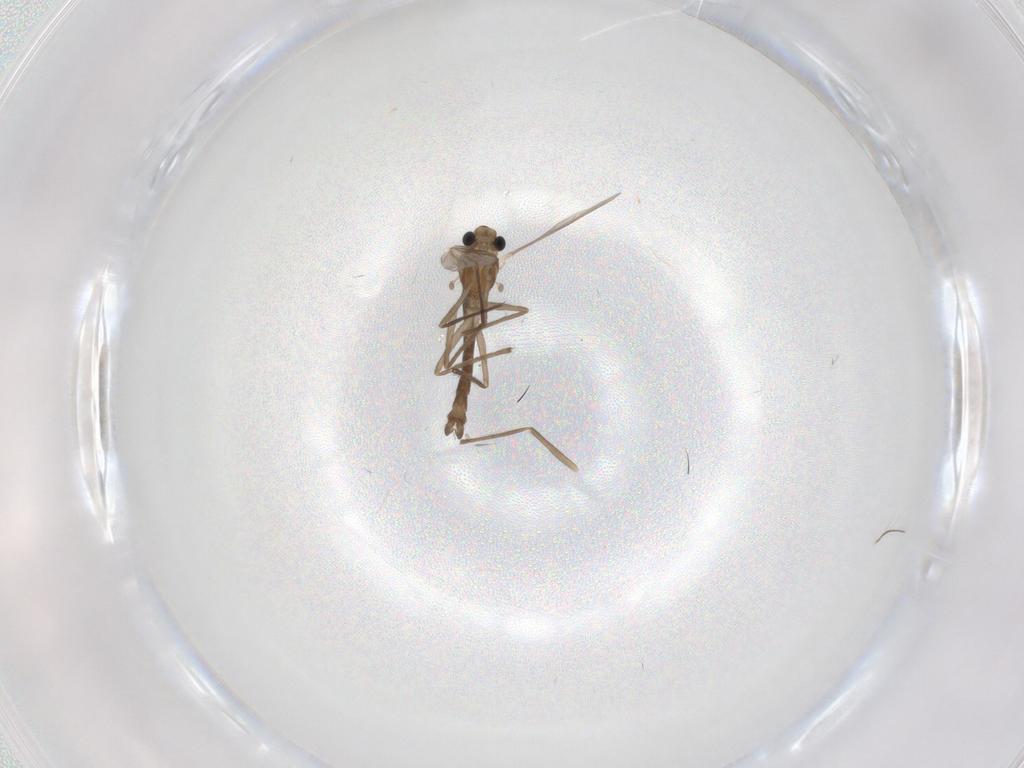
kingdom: Animalia
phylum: Arthropoda
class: Insecta
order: Diptera
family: Chironomidae
